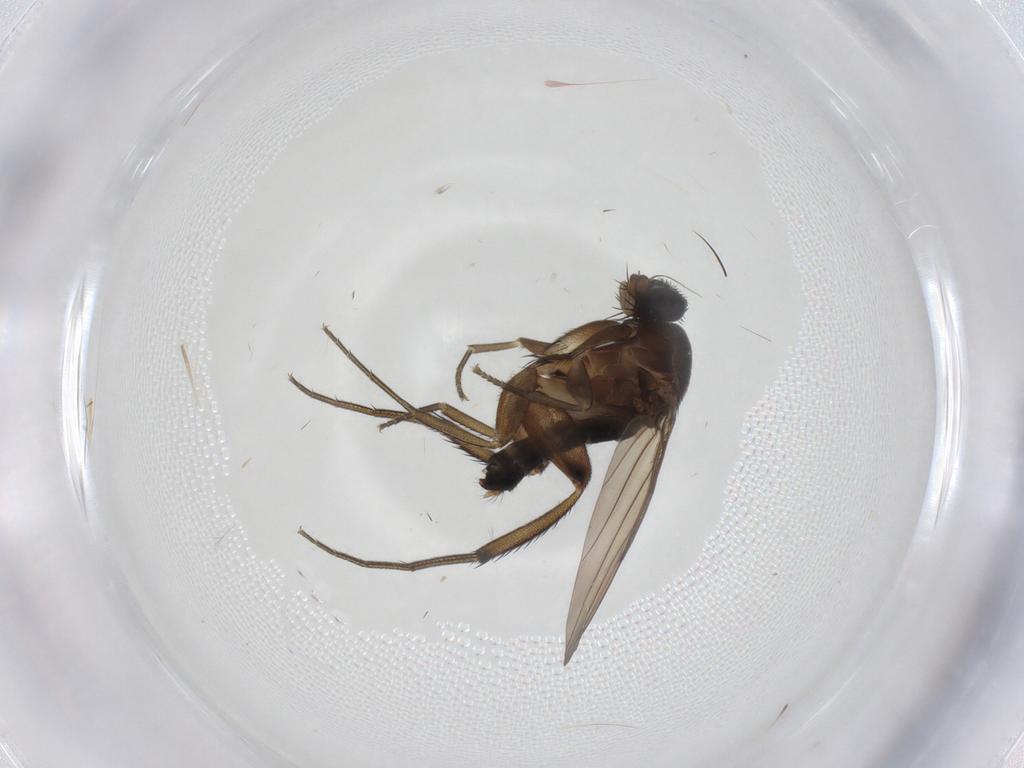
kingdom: Animalia
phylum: Arthropoda
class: Insecta
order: Diptera
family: Phoridae
